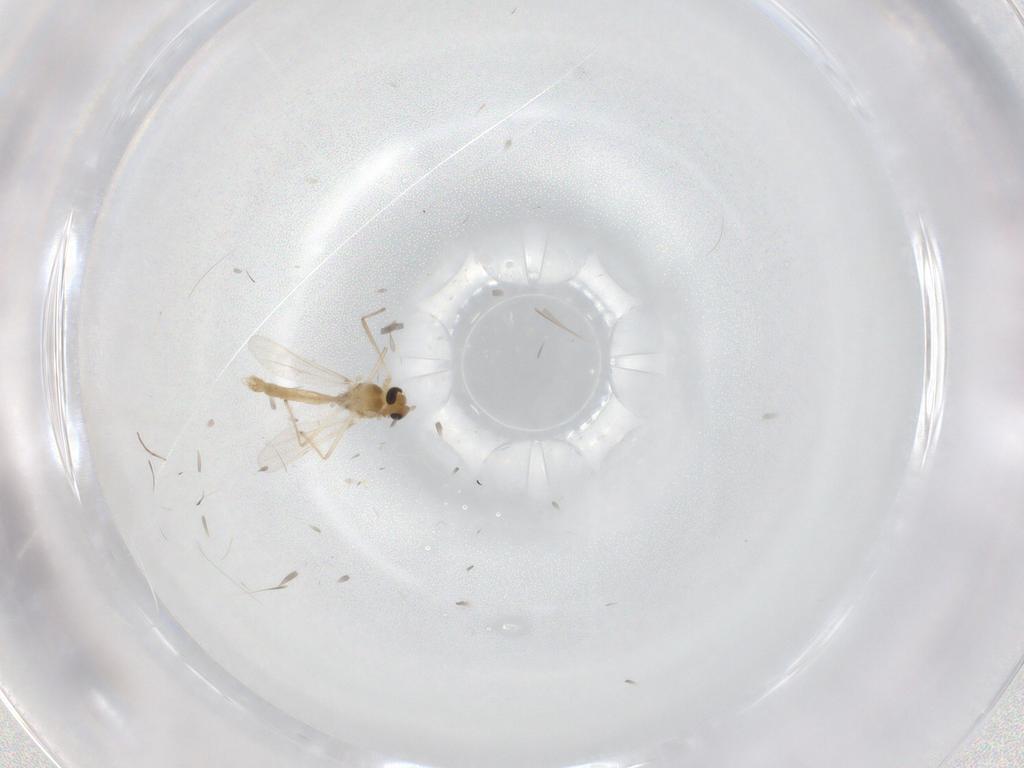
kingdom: Animalia
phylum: Arthropoda
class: Insecta
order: Diptera
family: Chironomidae
